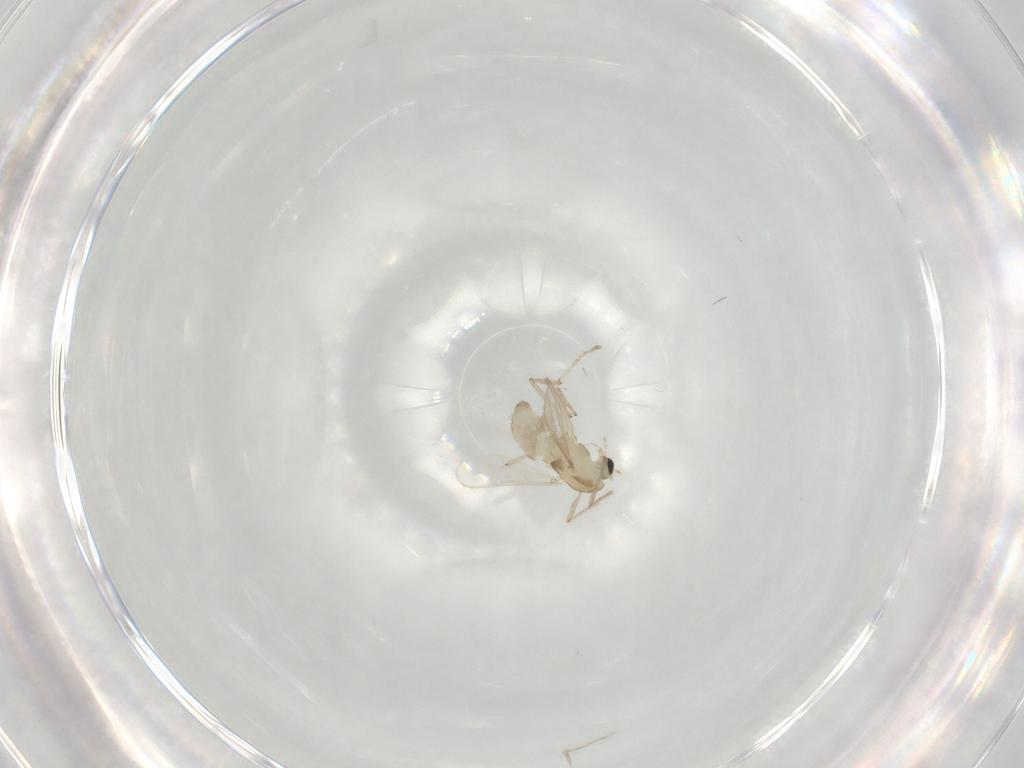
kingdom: Animalia
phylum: Arthropoda
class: Insecta
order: Diptera
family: Chironomidae
